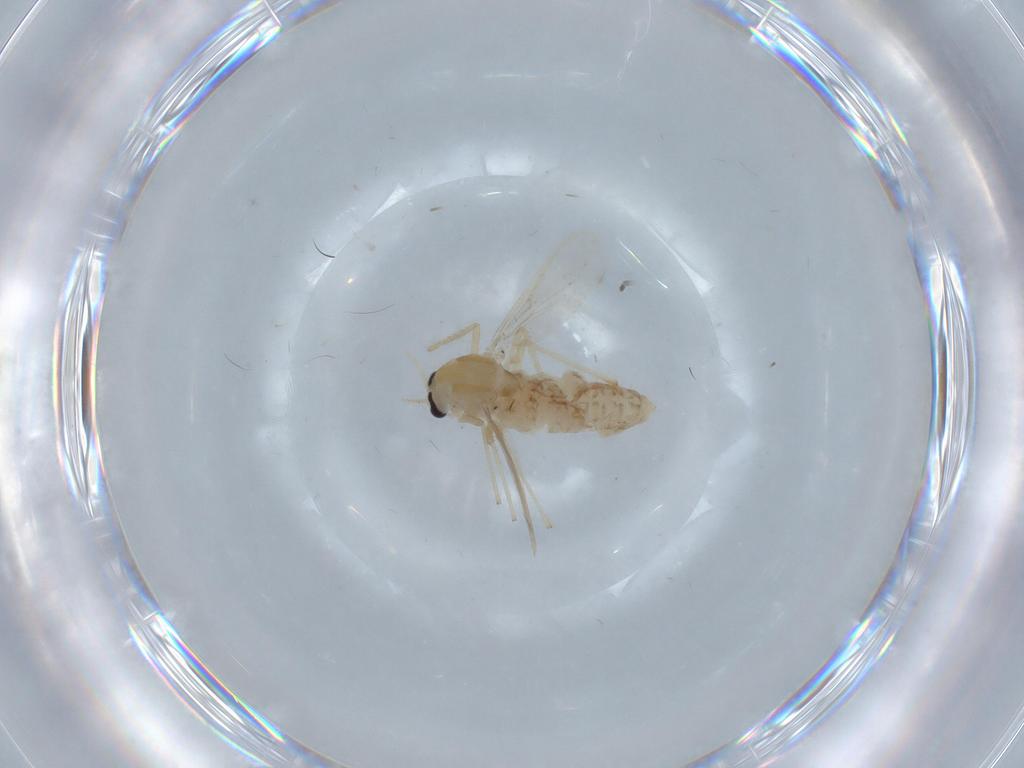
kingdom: Animalia
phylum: Arthropoda
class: Insecta
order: Diptera
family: Chironomidae
